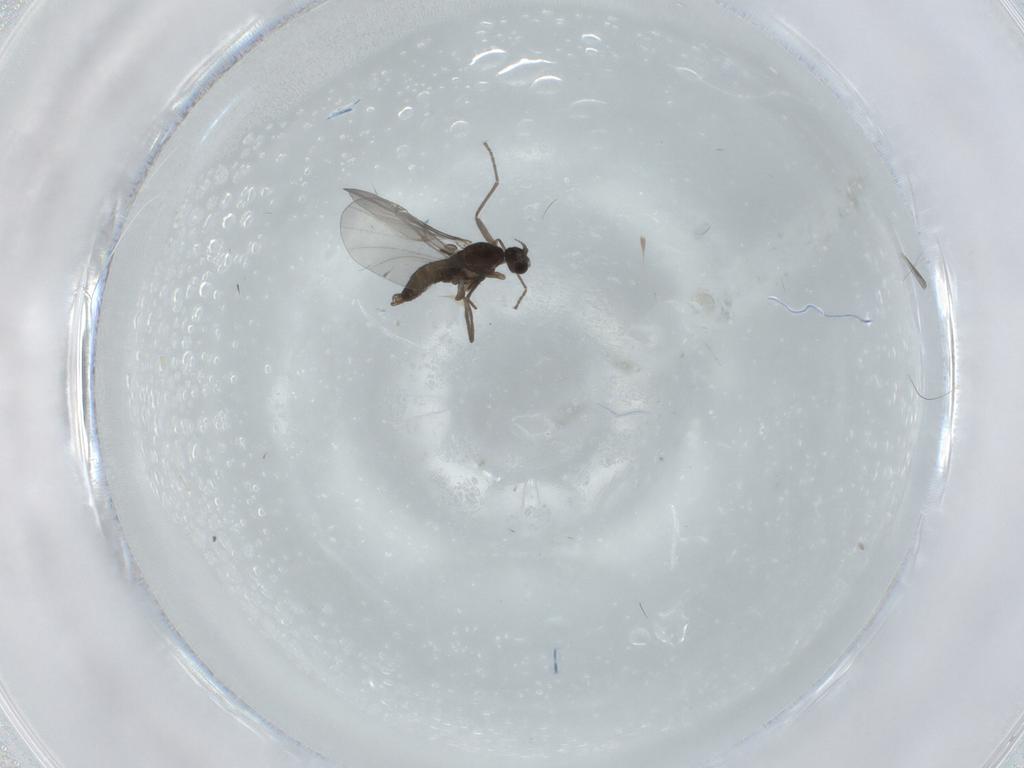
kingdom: Animalia
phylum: Arthropoda
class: Insecta
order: Diptera
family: Cecidomyiidae
